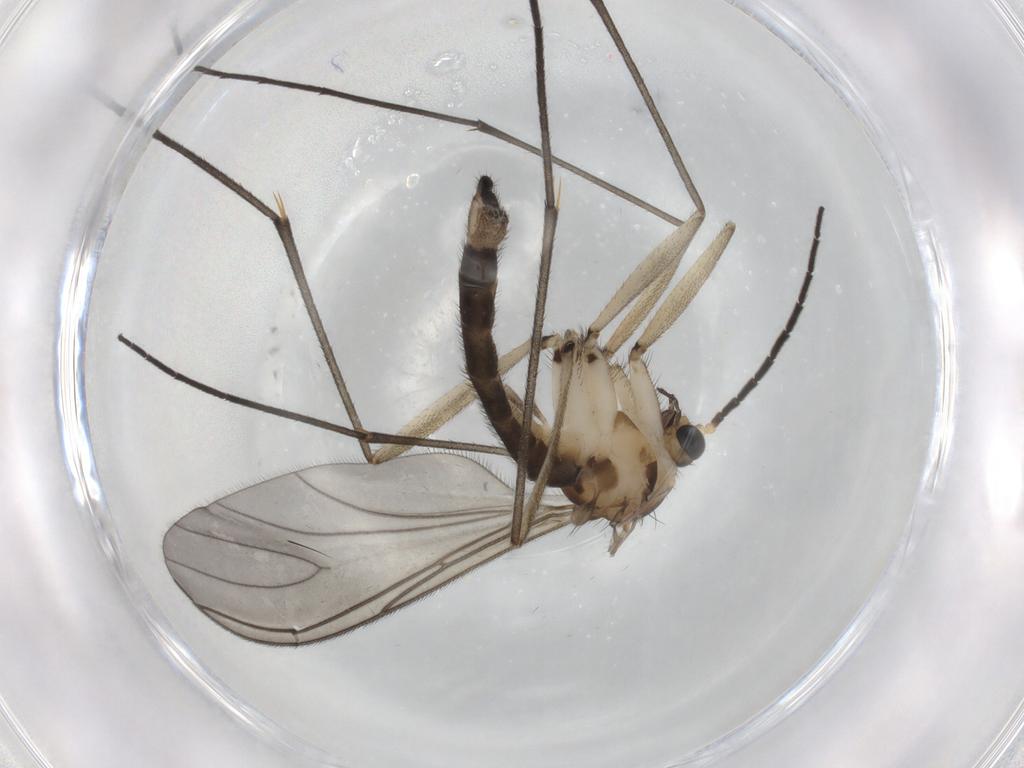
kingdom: Animalia
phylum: Arthropoda
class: Insecta
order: Diptera
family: Sciaridae
